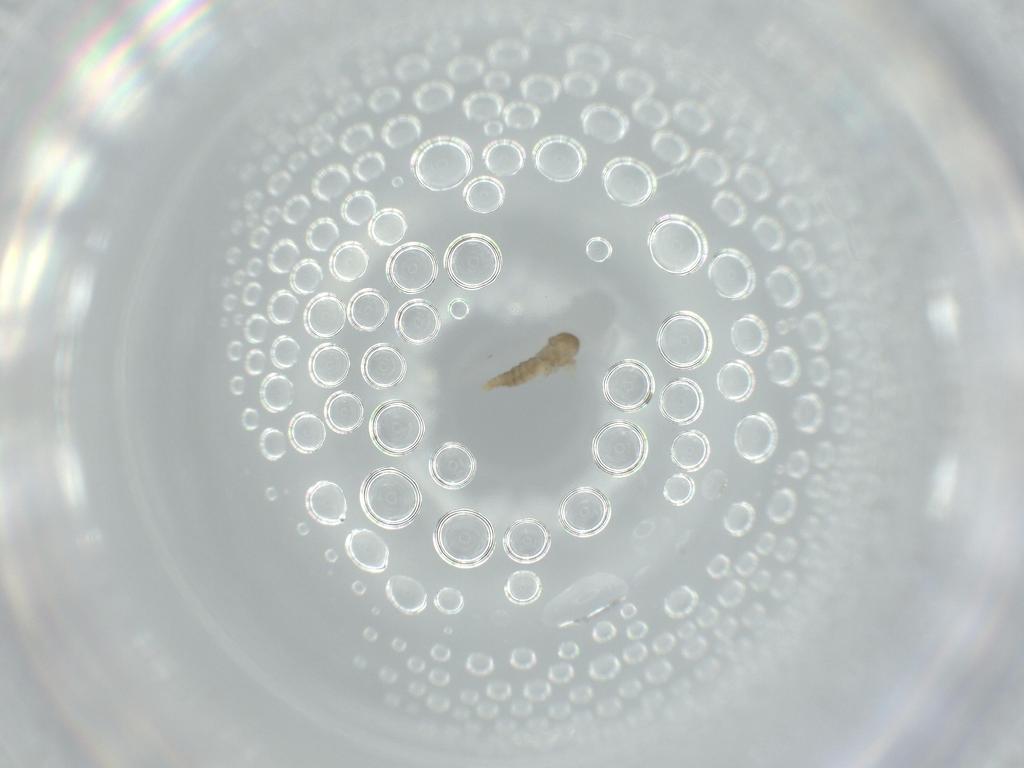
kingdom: Animalia
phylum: Arthropoda
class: Insecta
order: Diptera
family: Cecidomyiidae
